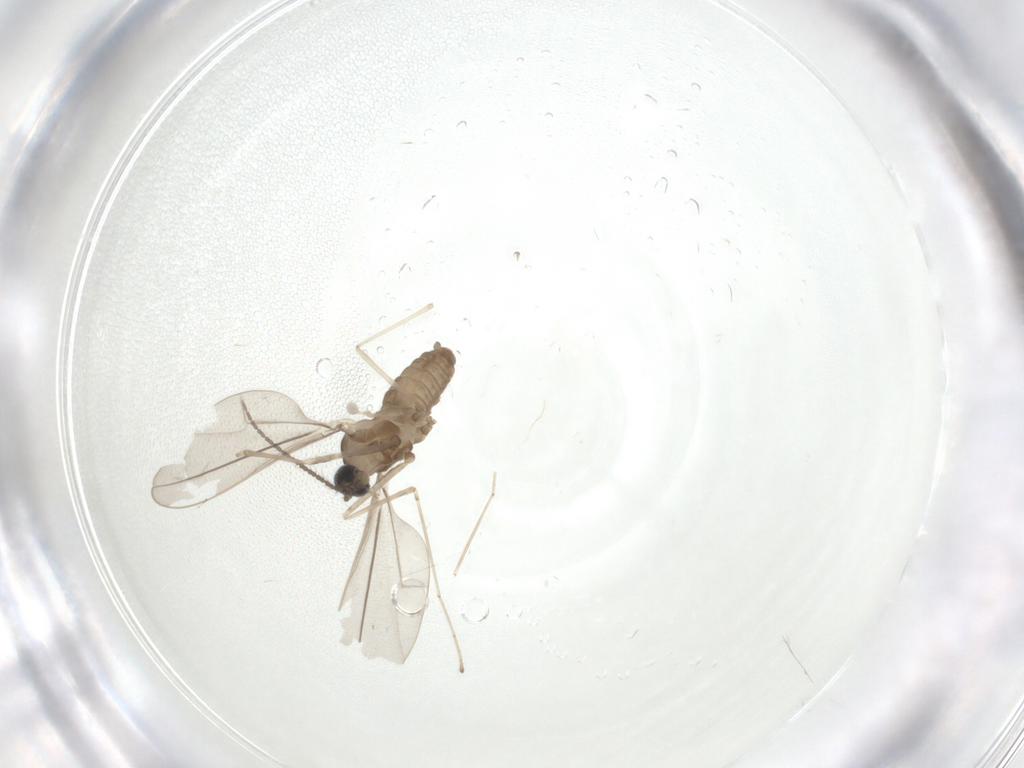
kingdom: Animalia
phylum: Arthropoda
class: Insecta
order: Diptera
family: Cecidomyiidae
